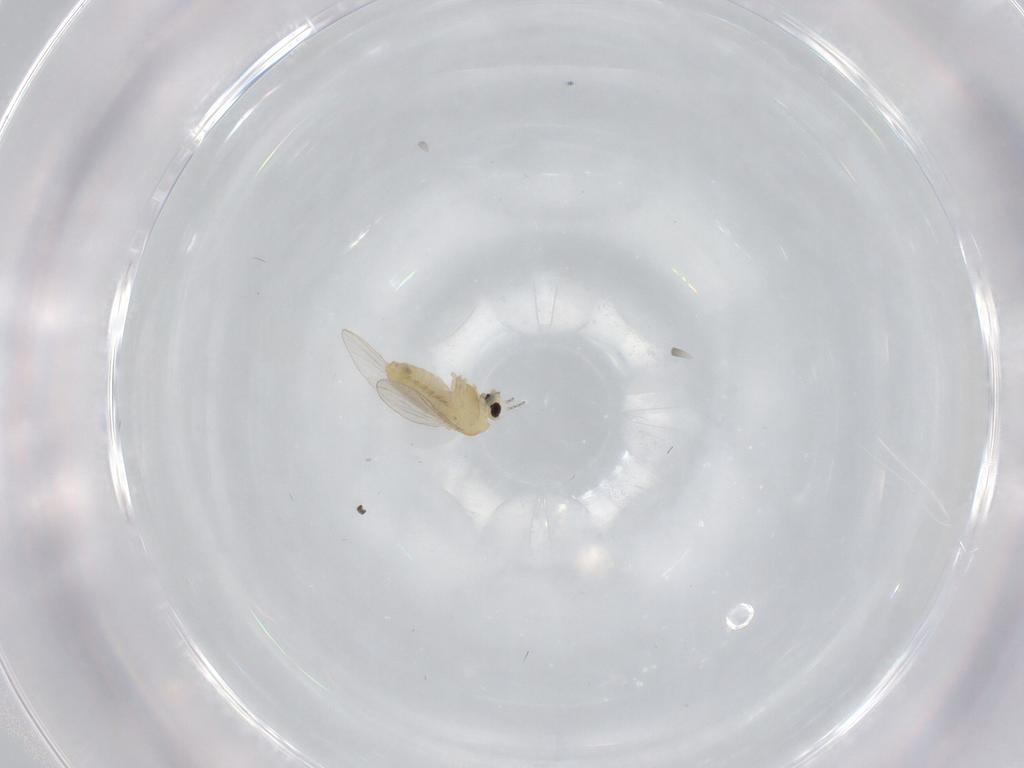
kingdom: Animalia
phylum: Arthropoda
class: Insecta
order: Diptera
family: Chironomidae
